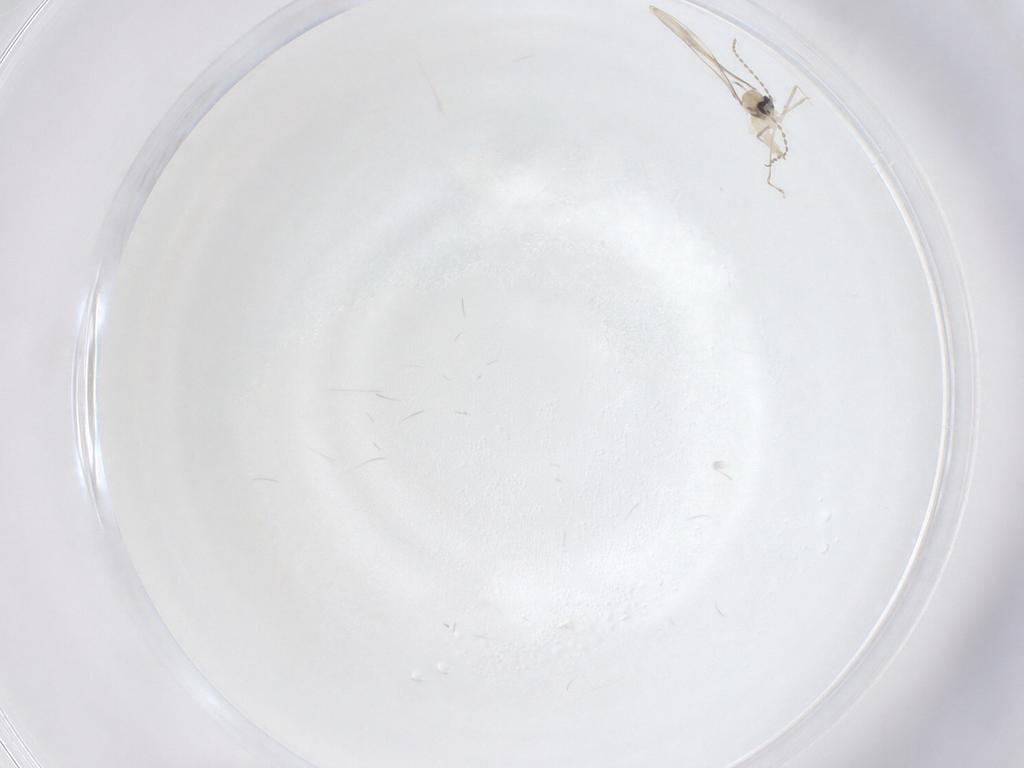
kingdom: Animalia
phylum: Arthropoda
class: Insecta
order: Diptera
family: Cecidomyiidae
